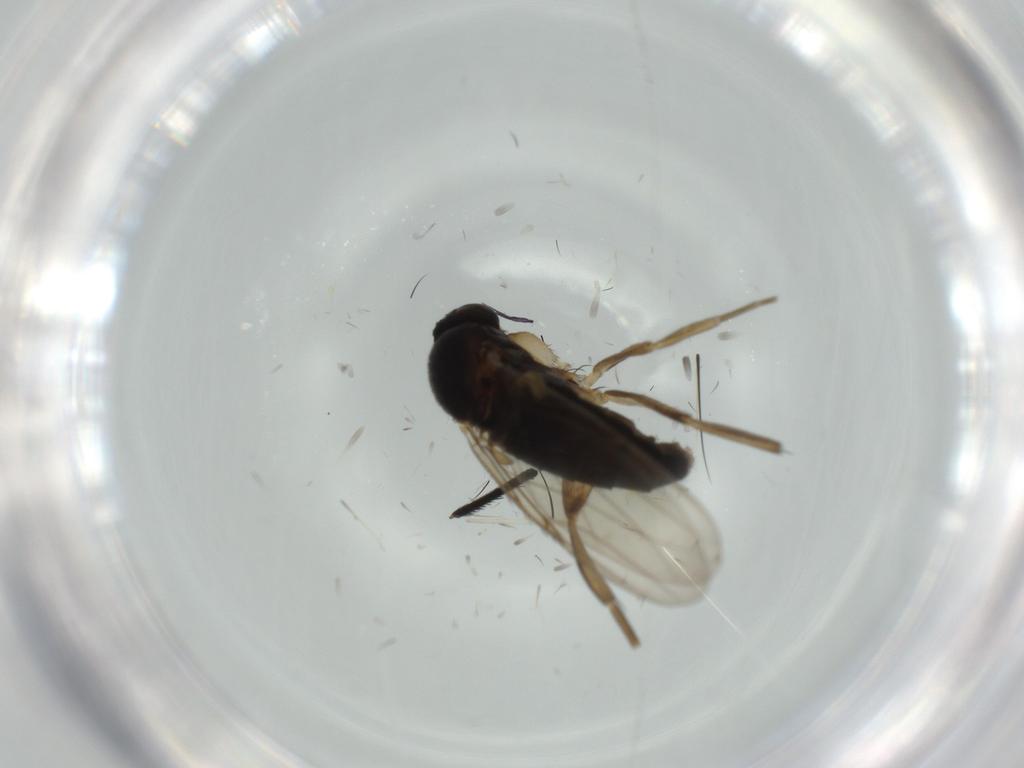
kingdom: Animalia
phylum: Arthropoda
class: Insecta
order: Diptera
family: Phoridae
